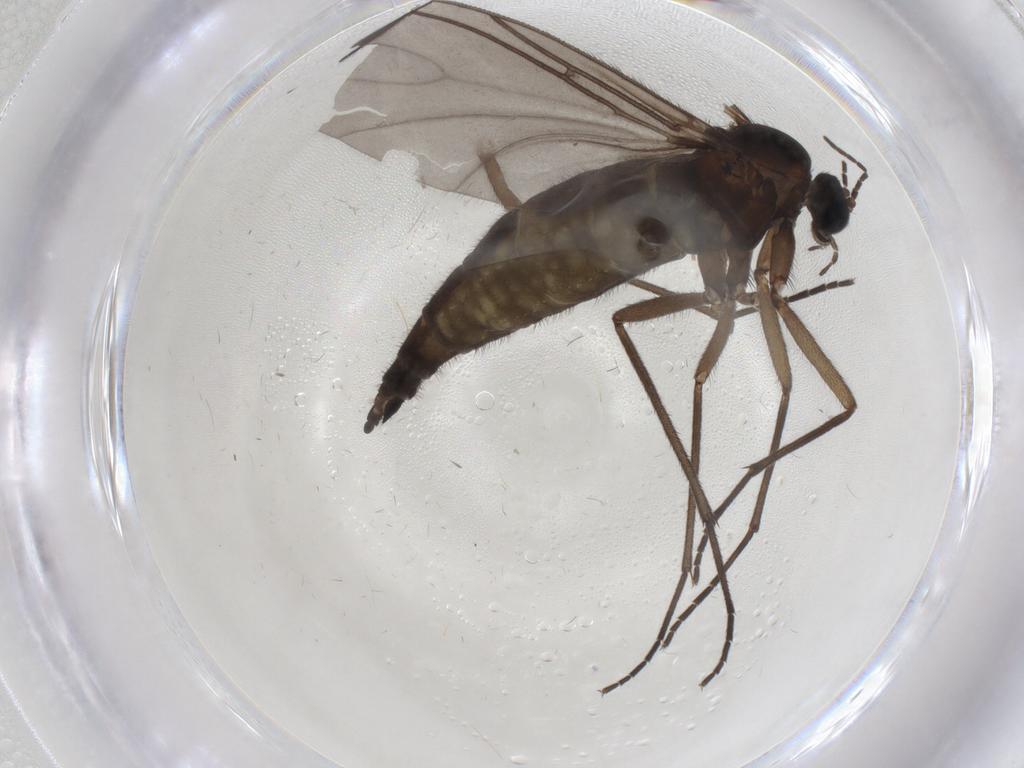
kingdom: Animalia
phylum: Arthropoda
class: Insecta
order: Diptera
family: Sciaridae
